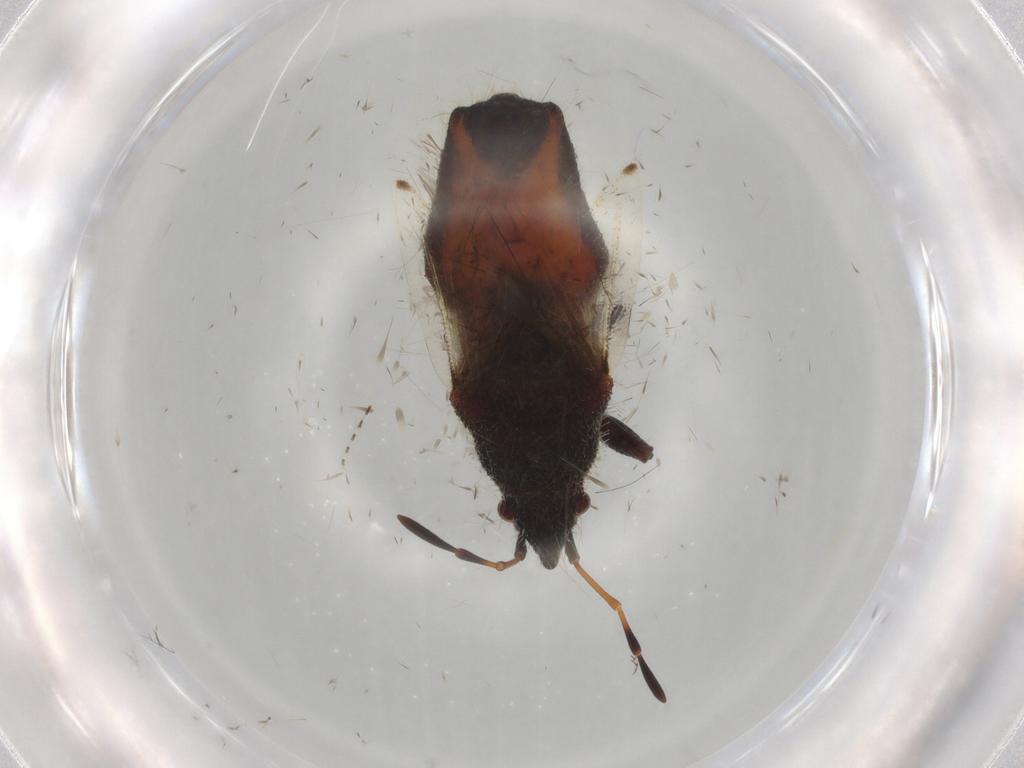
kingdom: Animalia
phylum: Arthropoda
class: Insecta
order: Hemiptera
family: Oxycarenidae
